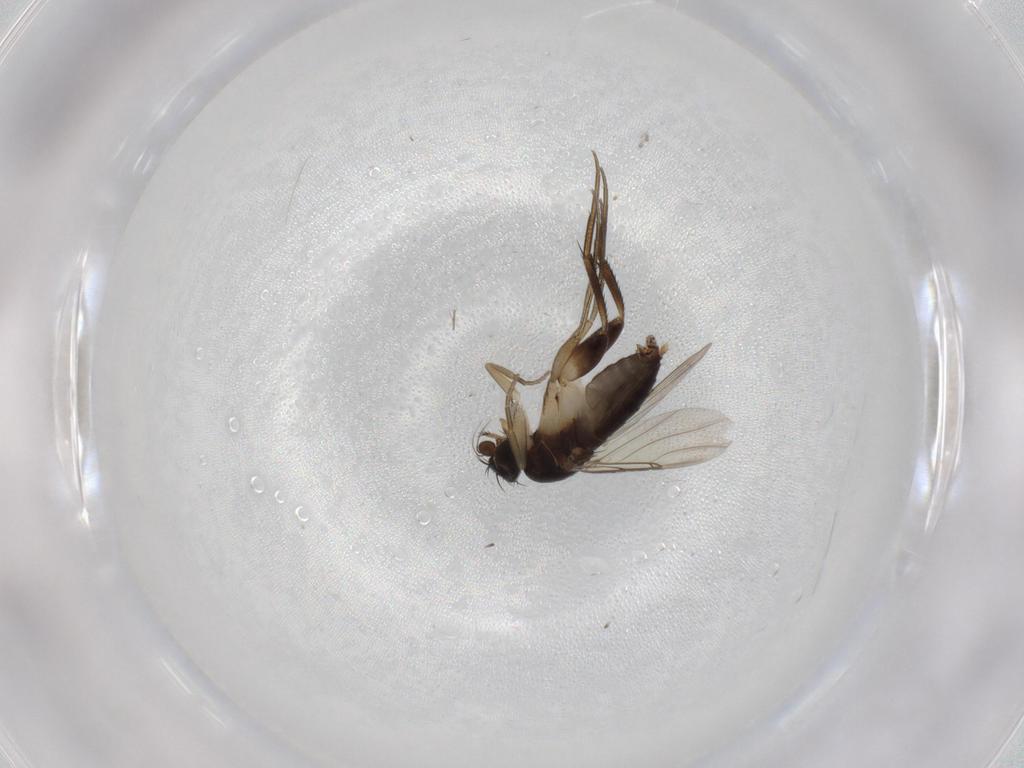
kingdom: Animalia
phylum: Arthropoda
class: Insecta
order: Diptera
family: Phoridae
